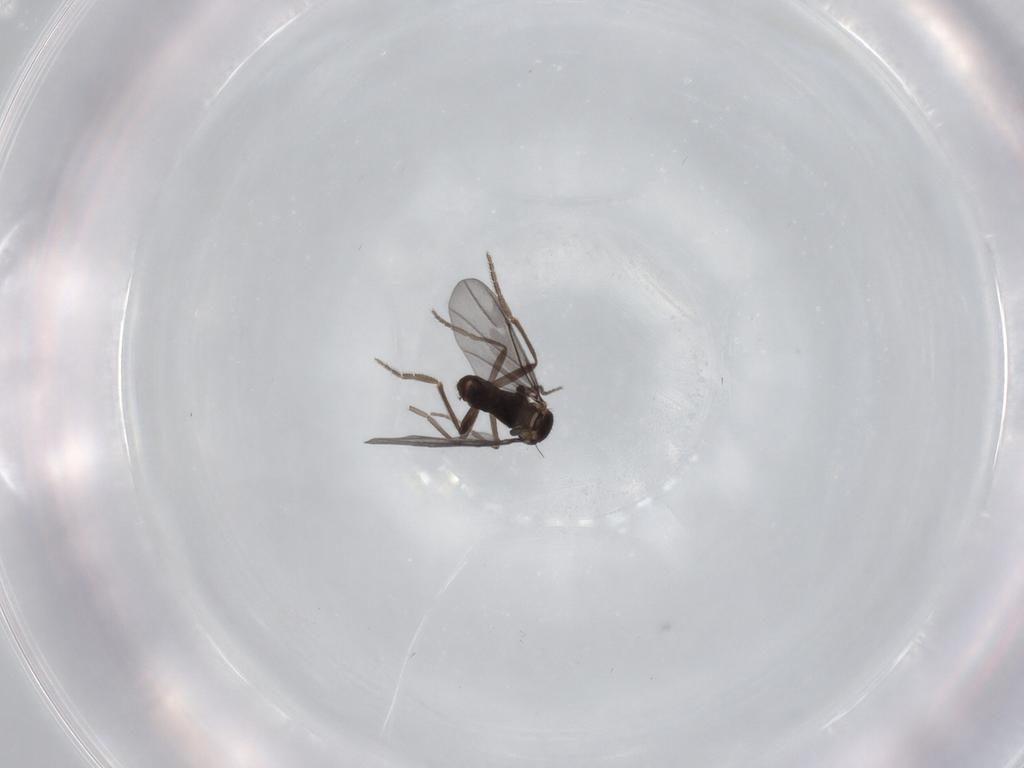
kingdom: Animalia
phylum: Arthropoda
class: Insecta
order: Diptera
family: Phoridae
